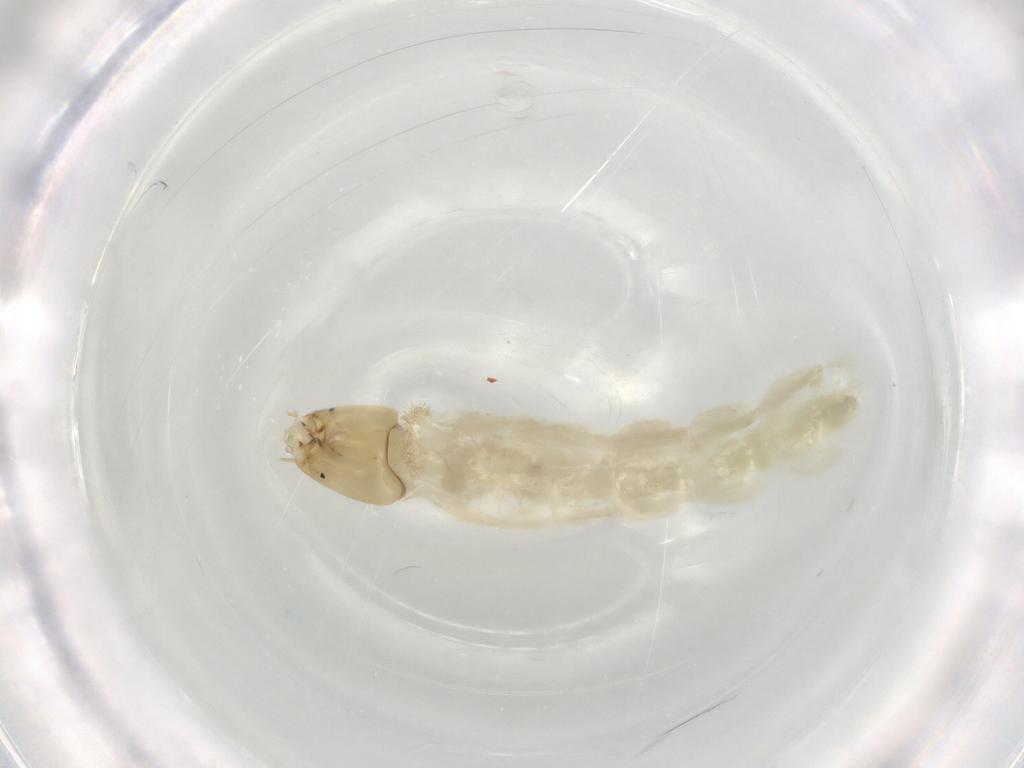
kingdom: Animalia
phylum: Arthropoda
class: Insecta
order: Diptera
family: Chironomidae
